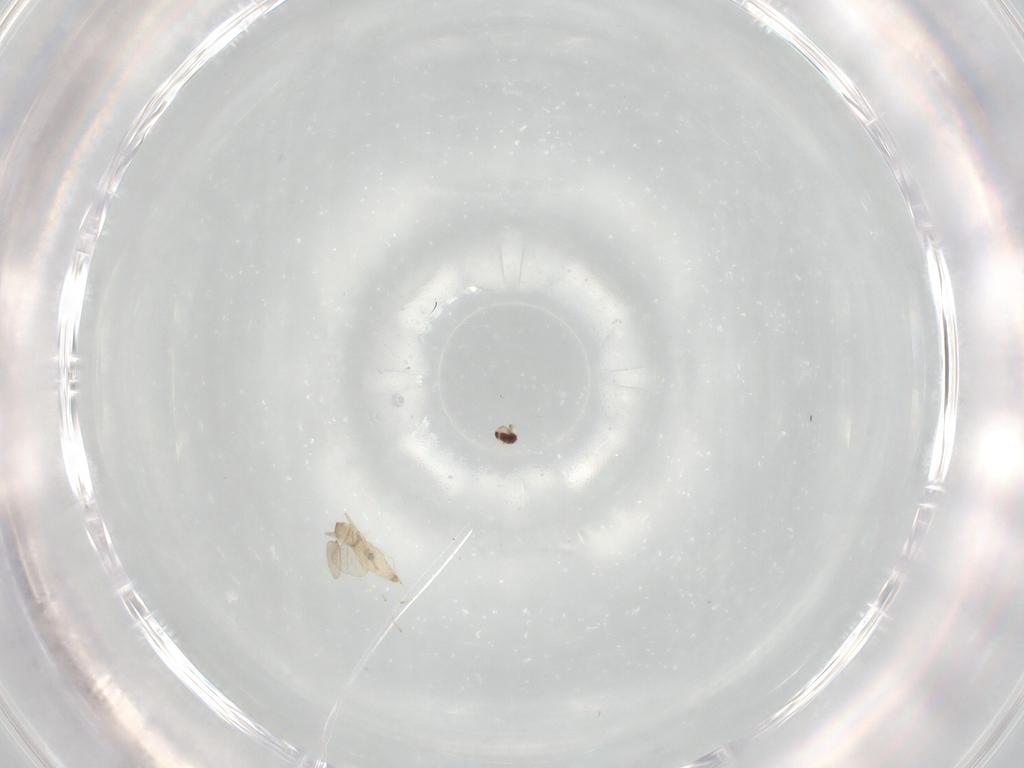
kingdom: Animalia
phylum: Arthropoda
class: Insecta
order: Diptera
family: Cecidomyiidae
